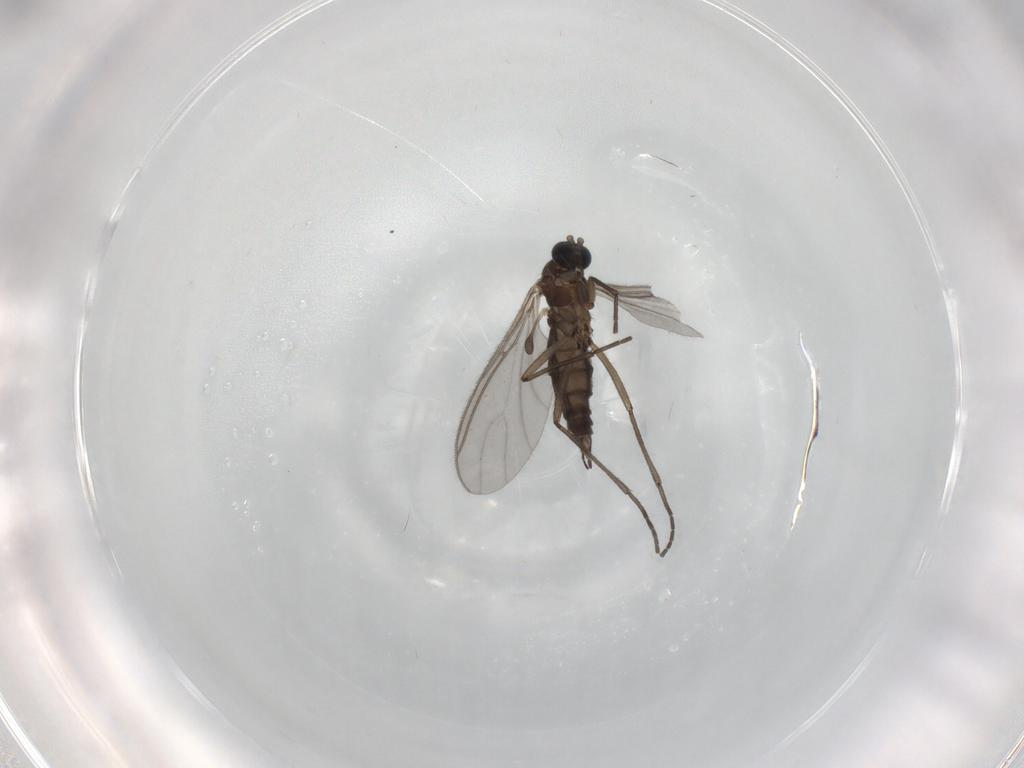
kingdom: Animalia
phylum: Arthropoda
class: Insecta
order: Diptera
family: Sciaridae
